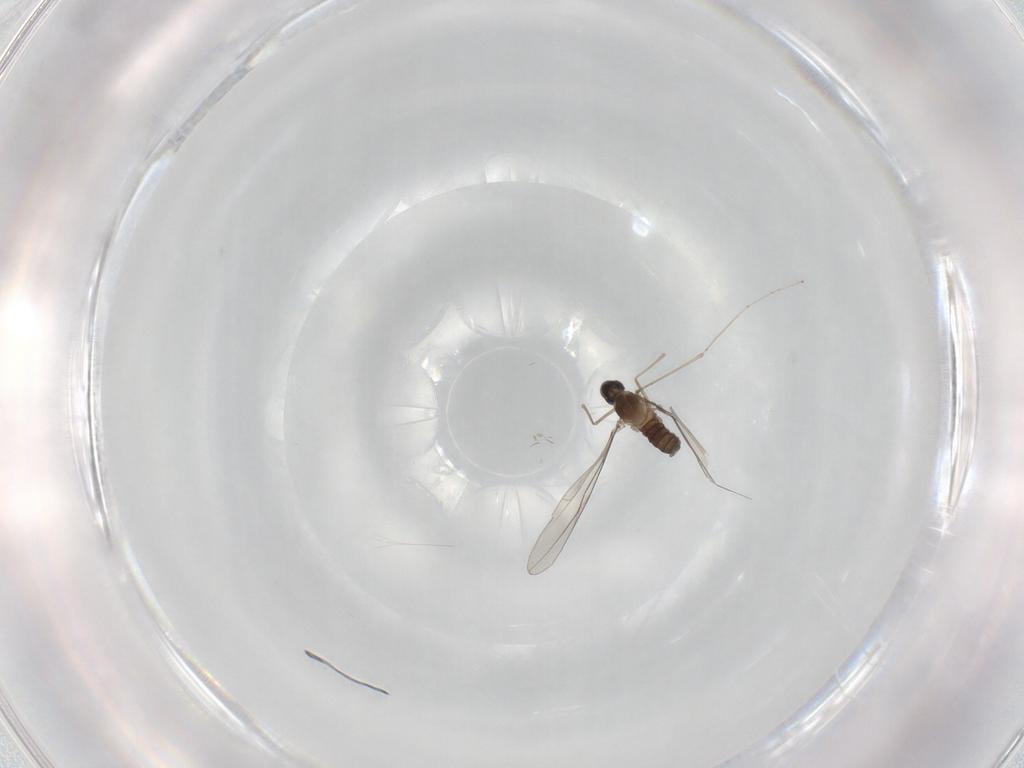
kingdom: Animalia
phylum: Arthropoda
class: Insecta
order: Diptera
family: Cecidomyiidae
